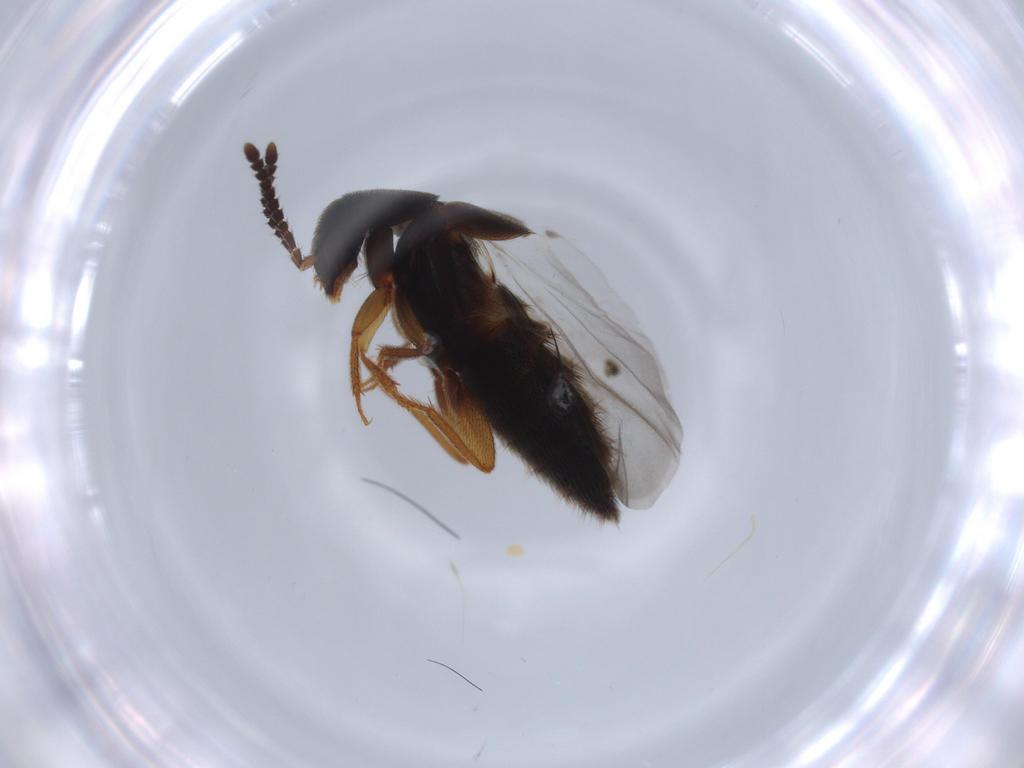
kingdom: Animalia
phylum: Arthropoda
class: Insecta
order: Coleoptera
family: Staphylinidae
